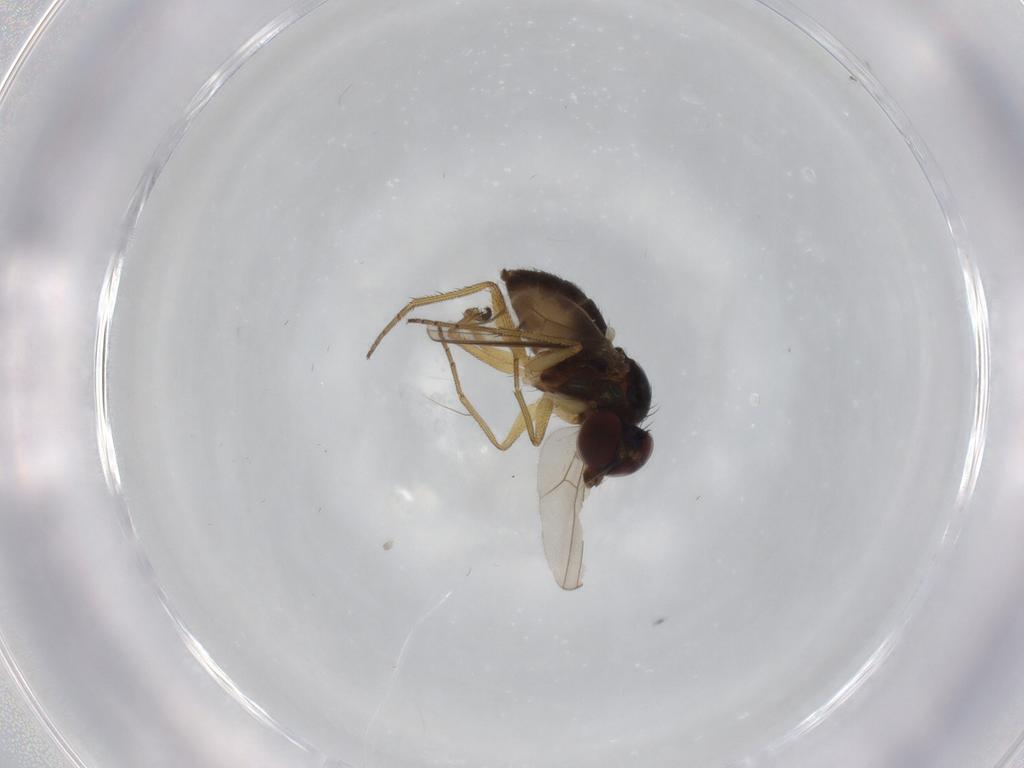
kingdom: Animalia
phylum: Arthropoda
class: Insecta
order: Diptera
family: Dolichopodidae
